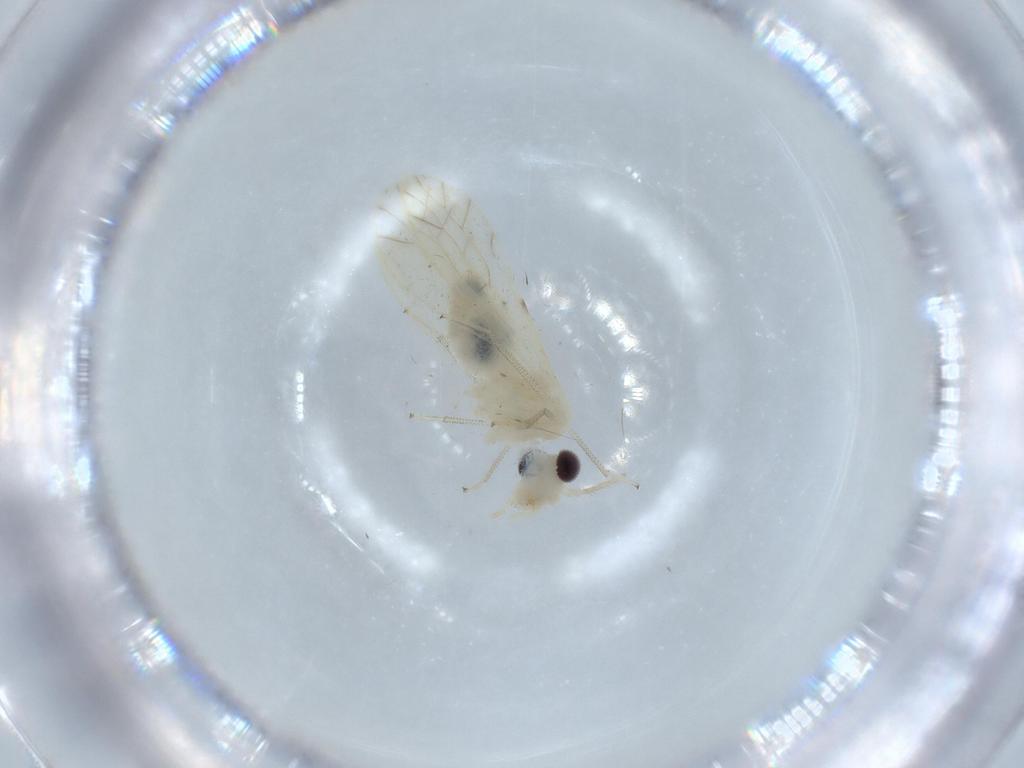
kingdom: Animalia
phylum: Arthropoda
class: Insecta
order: Psocodea
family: Caeciliusidae
